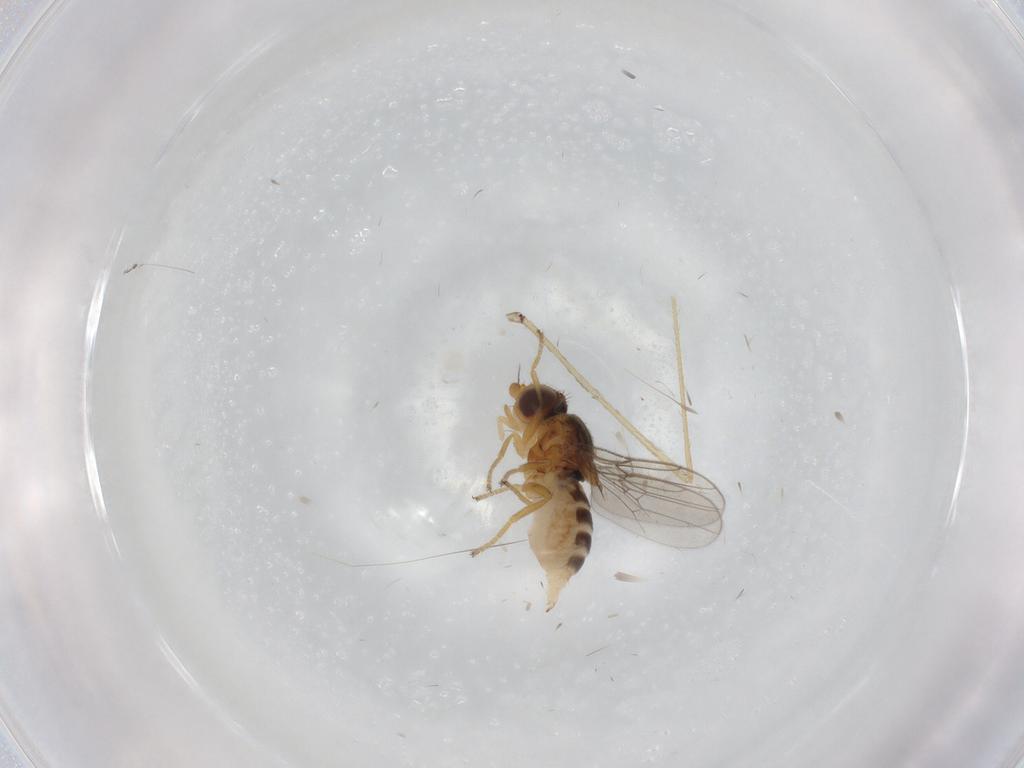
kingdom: Animalia
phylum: Arthropoda
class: Insecta
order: Diptera
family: Chloropidae
